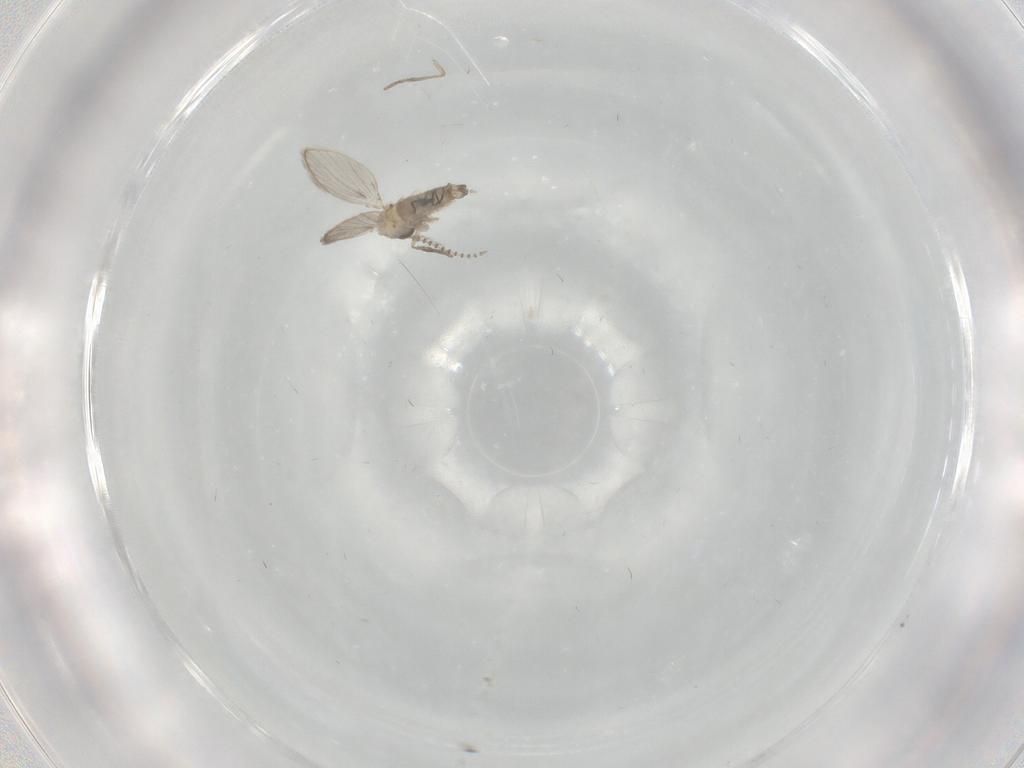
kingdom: Animalia
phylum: Arthropoda
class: Insecta
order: Diptera
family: Psychodidae
